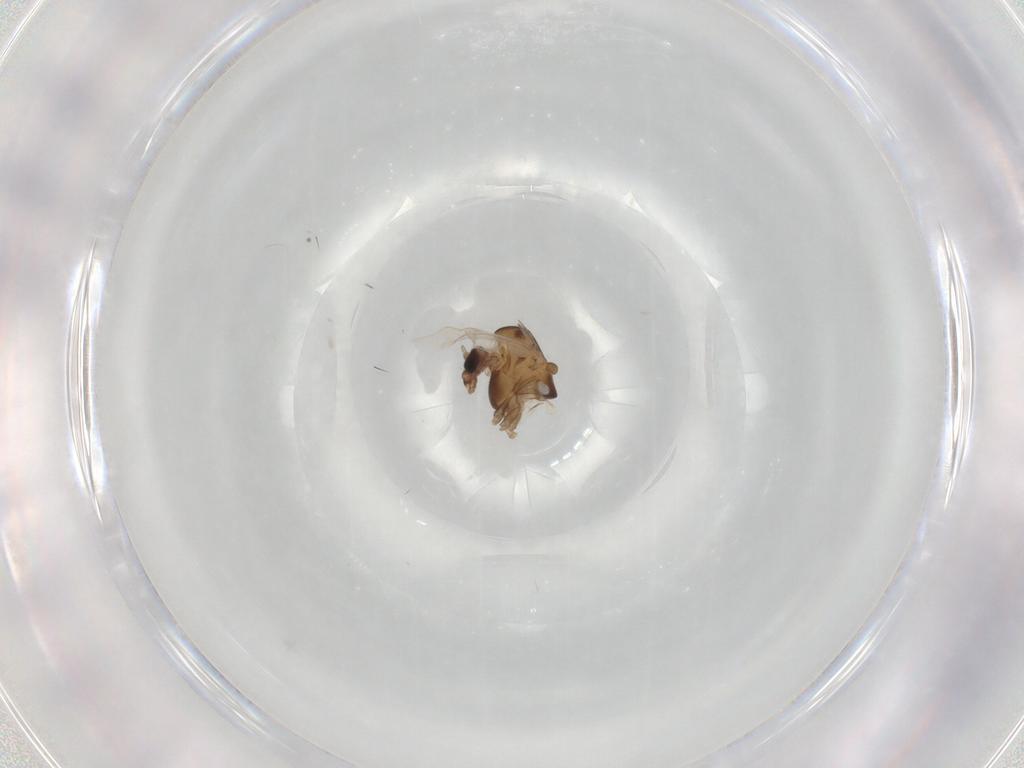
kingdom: Animalia
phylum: Arthropoda
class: Insecta
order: Diptera
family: Chironomidae
